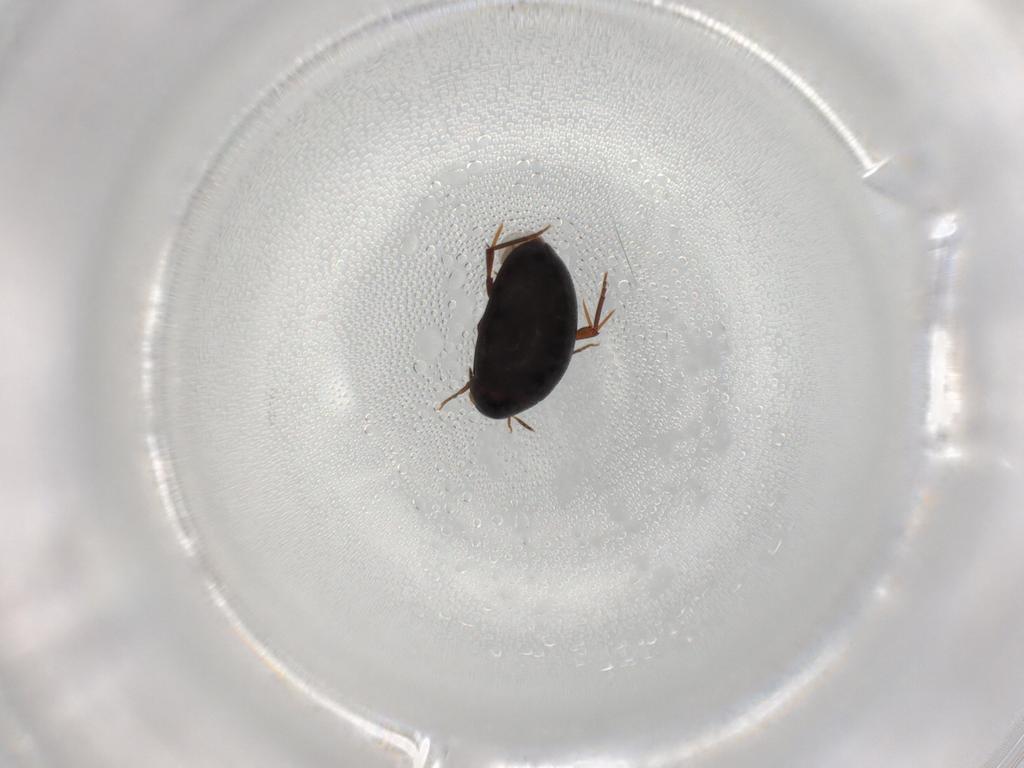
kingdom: Animalia
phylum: Arthropoda
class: Insecta
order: Coleoptera
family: Melandryidae
